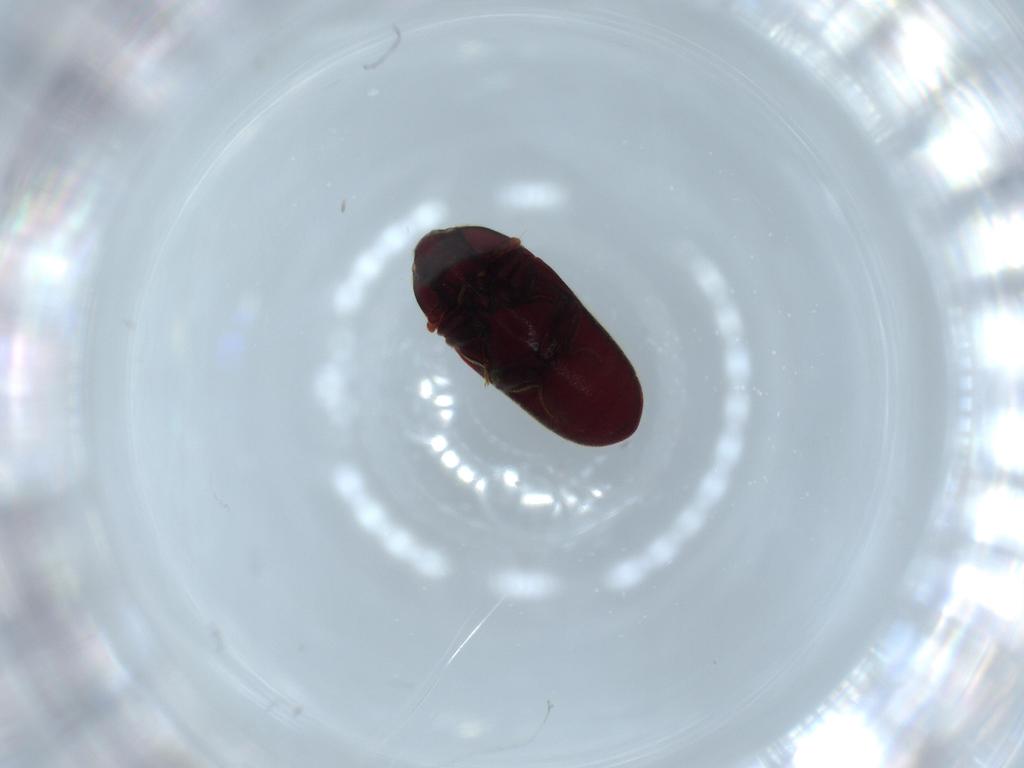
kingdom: Animalia
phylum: Arthropoda
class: Insecta
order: Coleoptera
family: Throscidae
